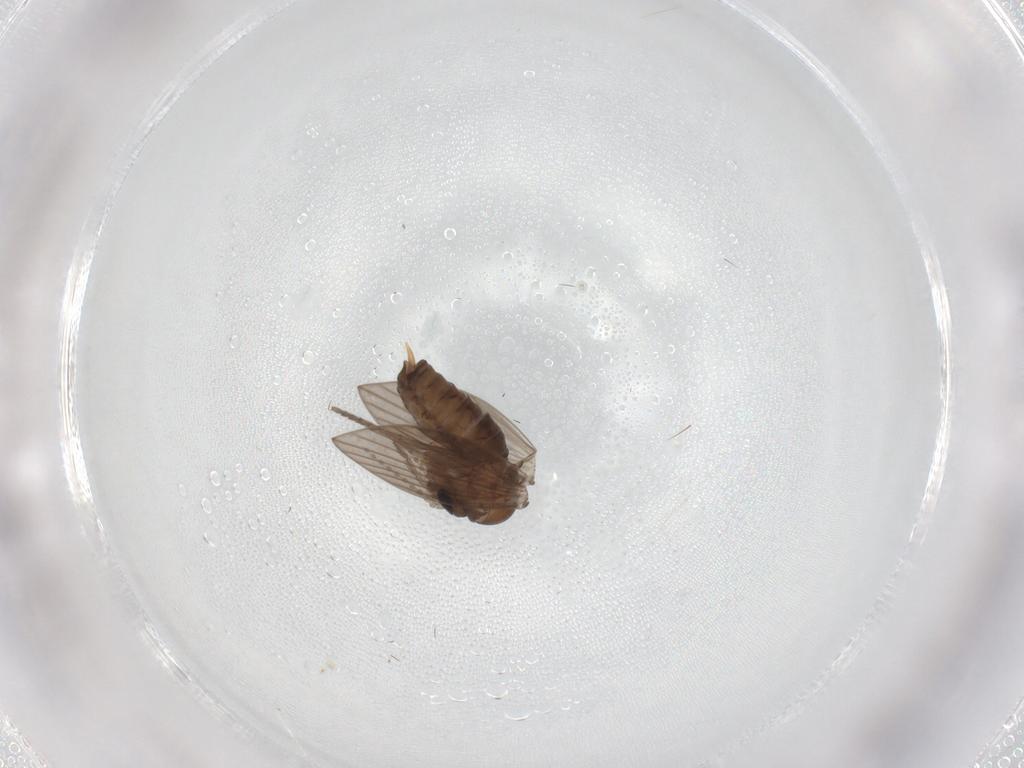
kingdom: Animalia
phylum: Arthropoda
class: Insecta
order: Diptera
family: Psychodidae
